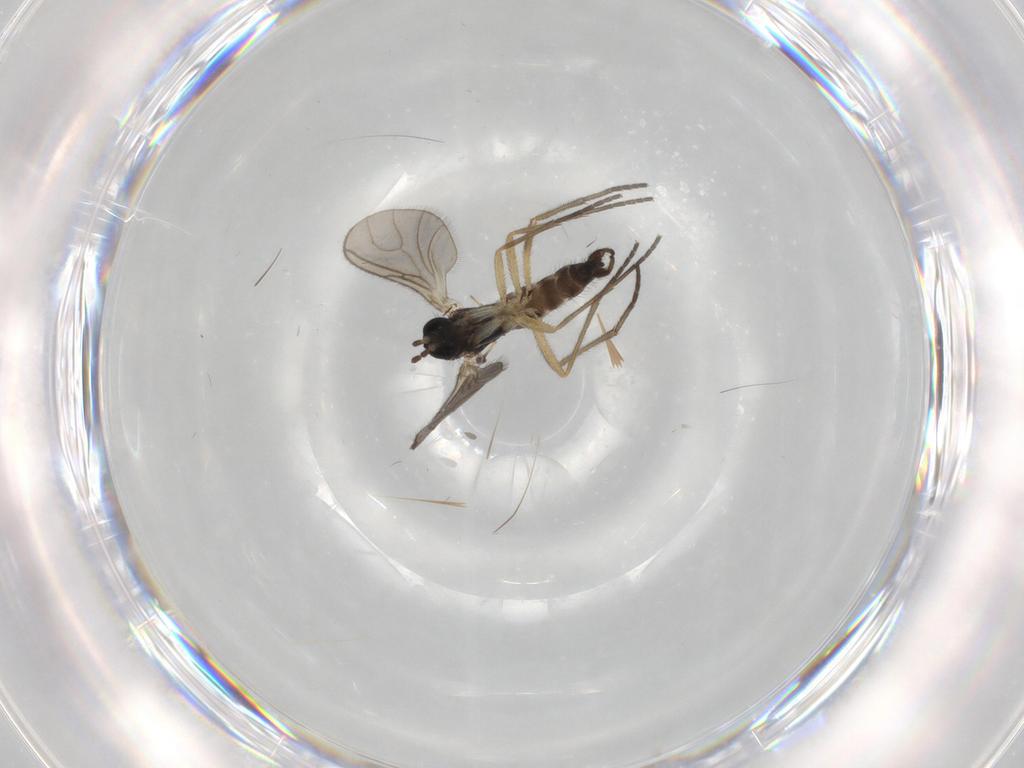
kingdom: Animalia
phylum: Arthropoda
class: Insecta
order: Diptera
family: Sciaridae
